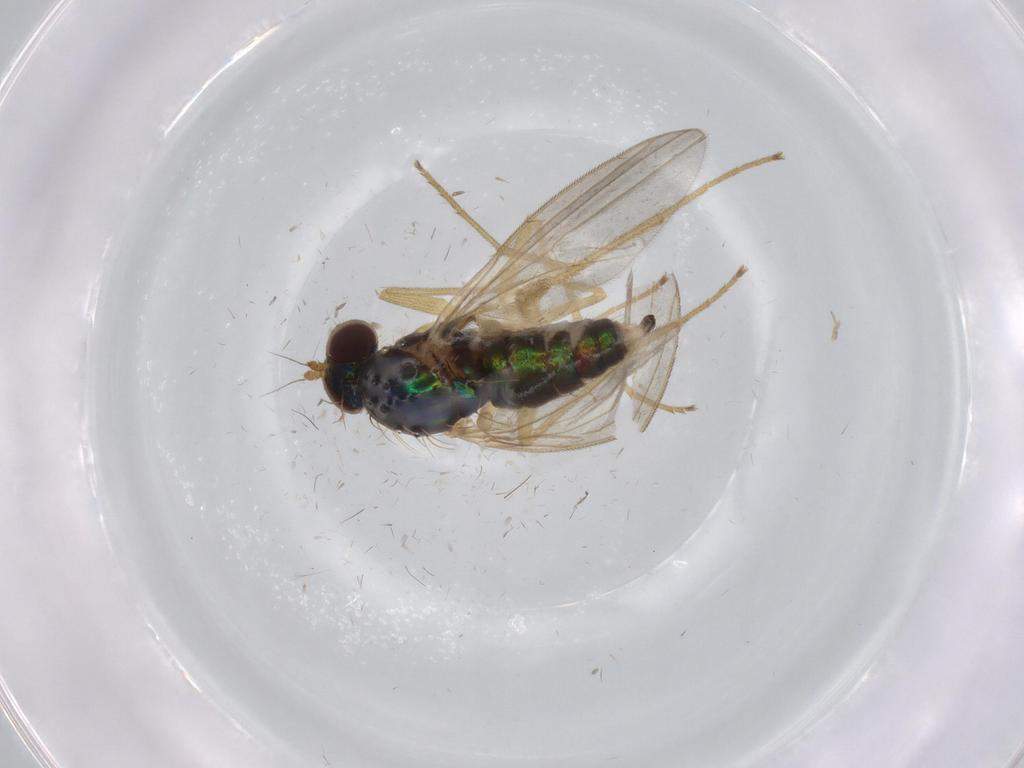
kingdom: Animalia
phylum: Arthropoda
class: Insecta
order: Diptera
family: Dolichopodidae
